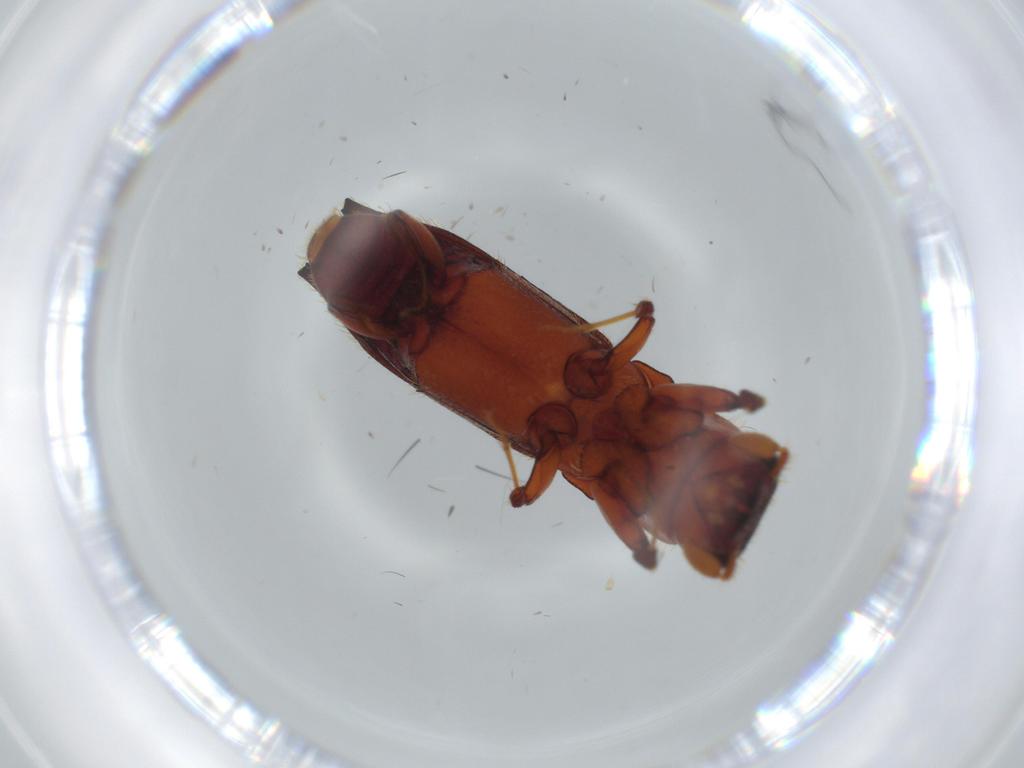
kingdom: Animalia
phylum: Arthropoda
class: Insecta
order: Coleoptera
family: Curculionidae
